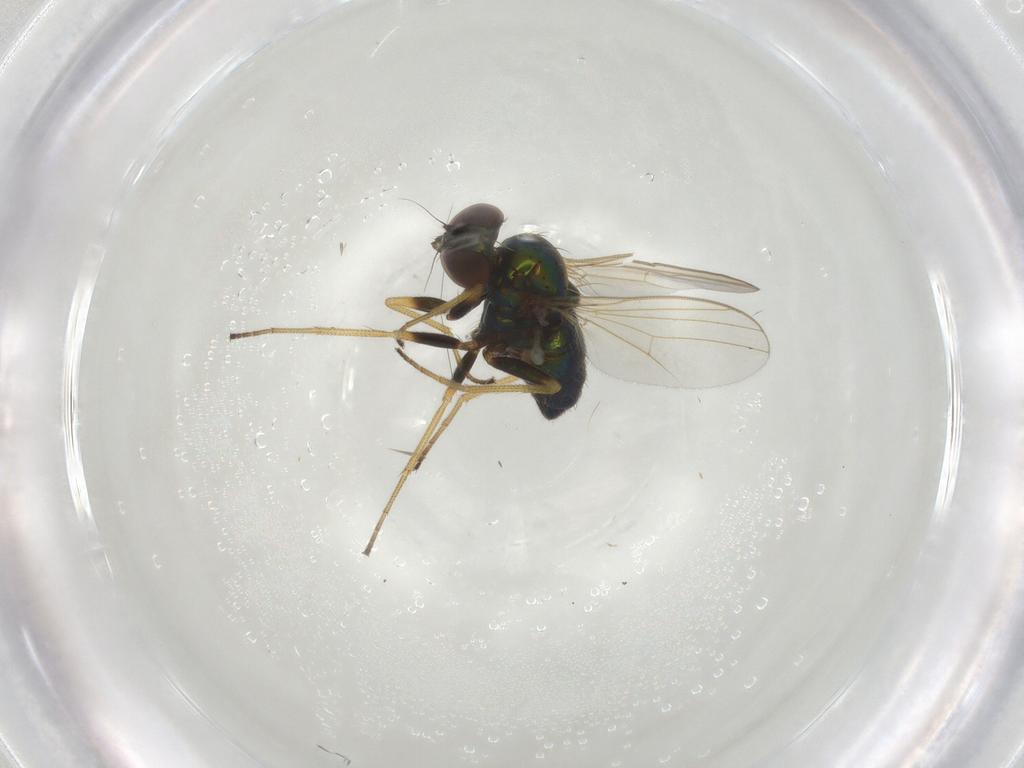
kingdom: Animalia
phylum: Arthropoda
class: Insecta
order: Diptera
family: Dolichopodidae
